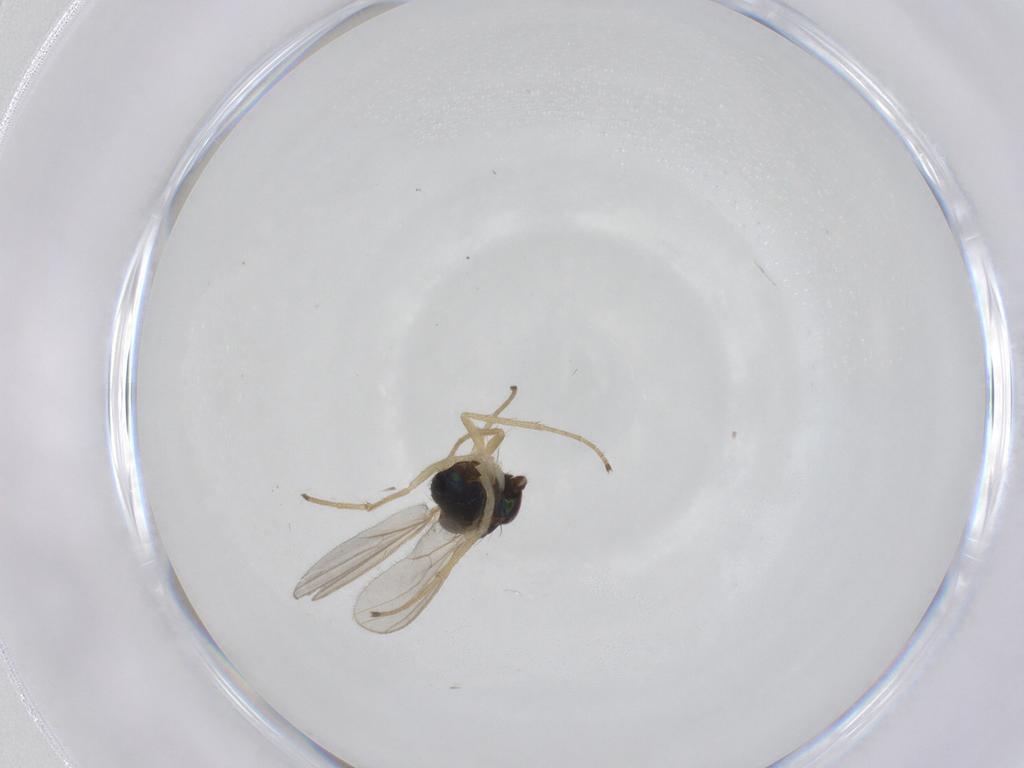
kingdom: Animalia
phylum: Arthropoda
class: Insecta
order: Diptera
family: Dolichopodidae
